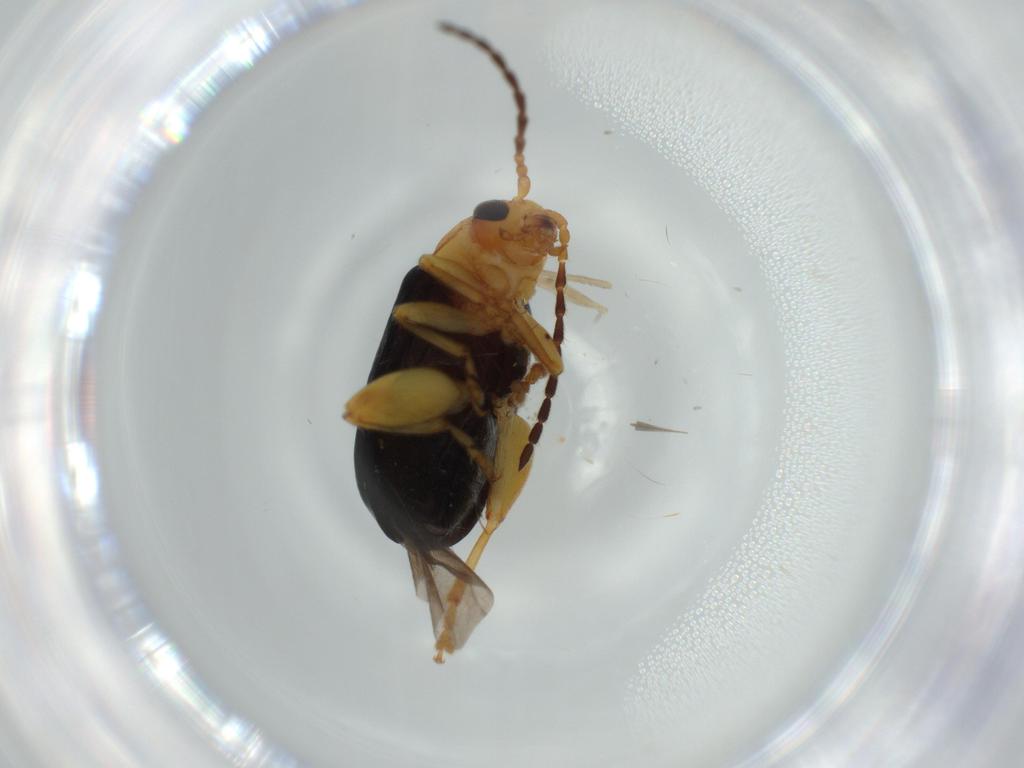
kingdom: Animalia
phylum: Arthropoda
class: Insecta
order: Coleoptera
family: Chrysomelidae
